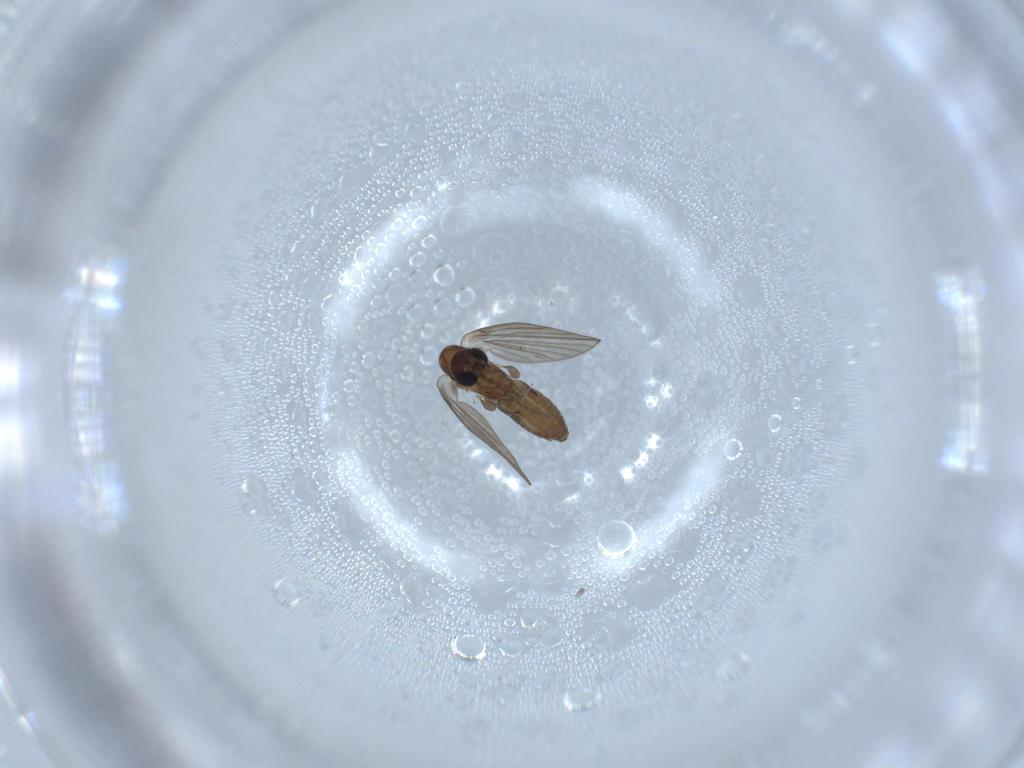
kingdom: Animalia
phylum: Arthropoda
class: Insecta
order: Diptera
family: Psychodidae
